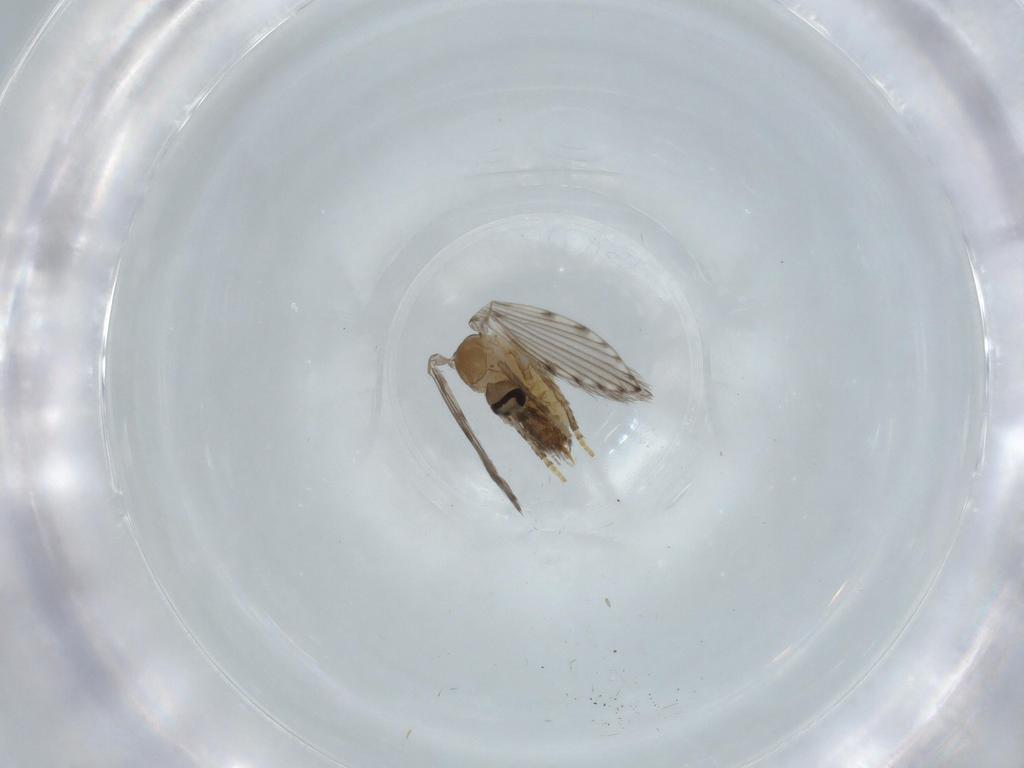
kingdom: Animalia
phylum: Arthropoda
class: Insecta
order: Diptera
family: Psychodidae
